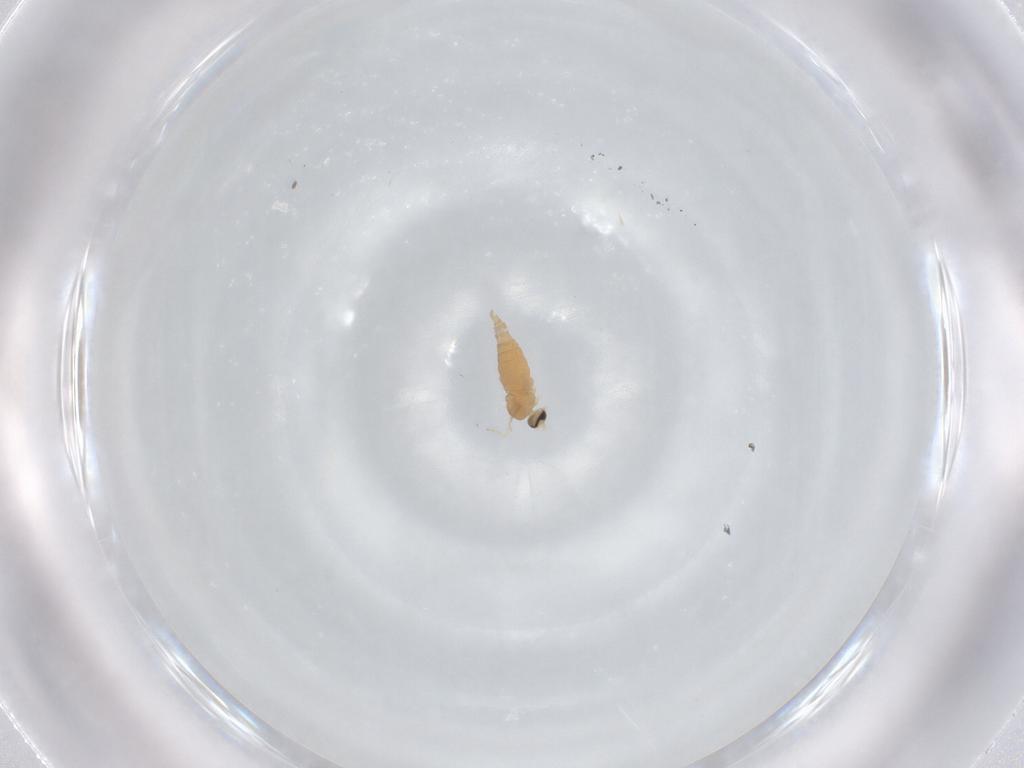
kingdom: Animalia
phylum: Arthropoda
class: Insecta
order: Diptera
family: Cecidomyiidae
